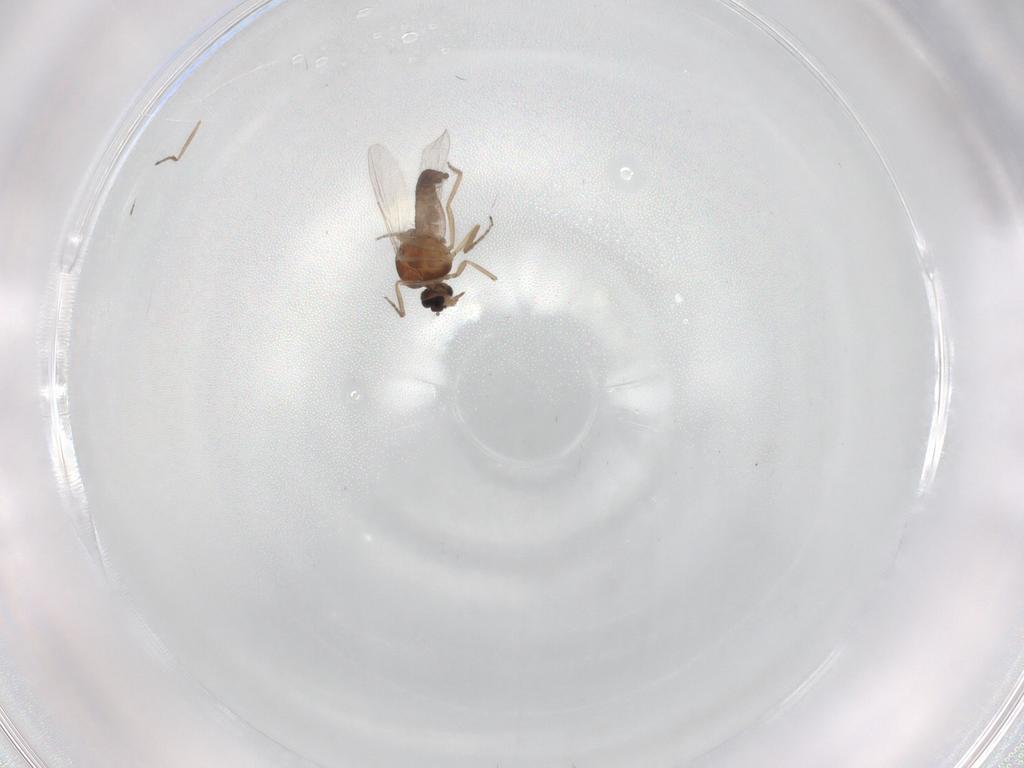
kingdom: Animalia
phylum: Arthropoda
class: Insecta
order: Diptera
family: Ceratopogonidae
